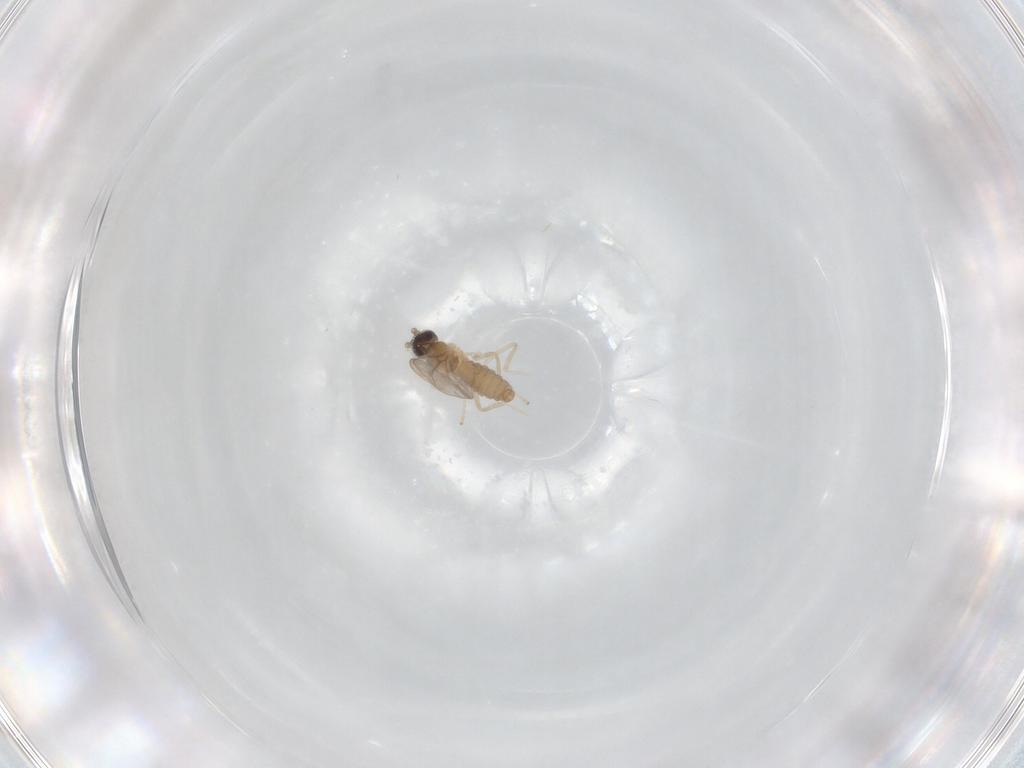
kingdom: Animalia
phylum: Arthropoda
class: Insecta
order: Diptera
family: Cecidomyiidae
